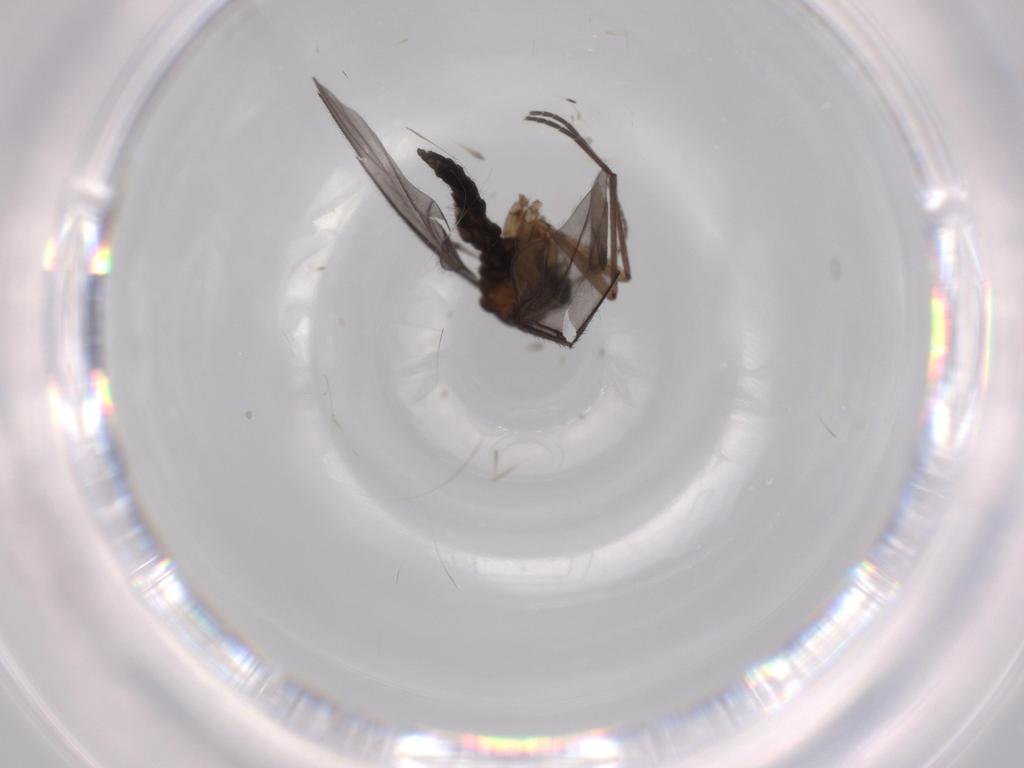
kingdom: Animalia
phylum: Arthropoda
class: Insecta
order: Diptera
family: Sciaridae
